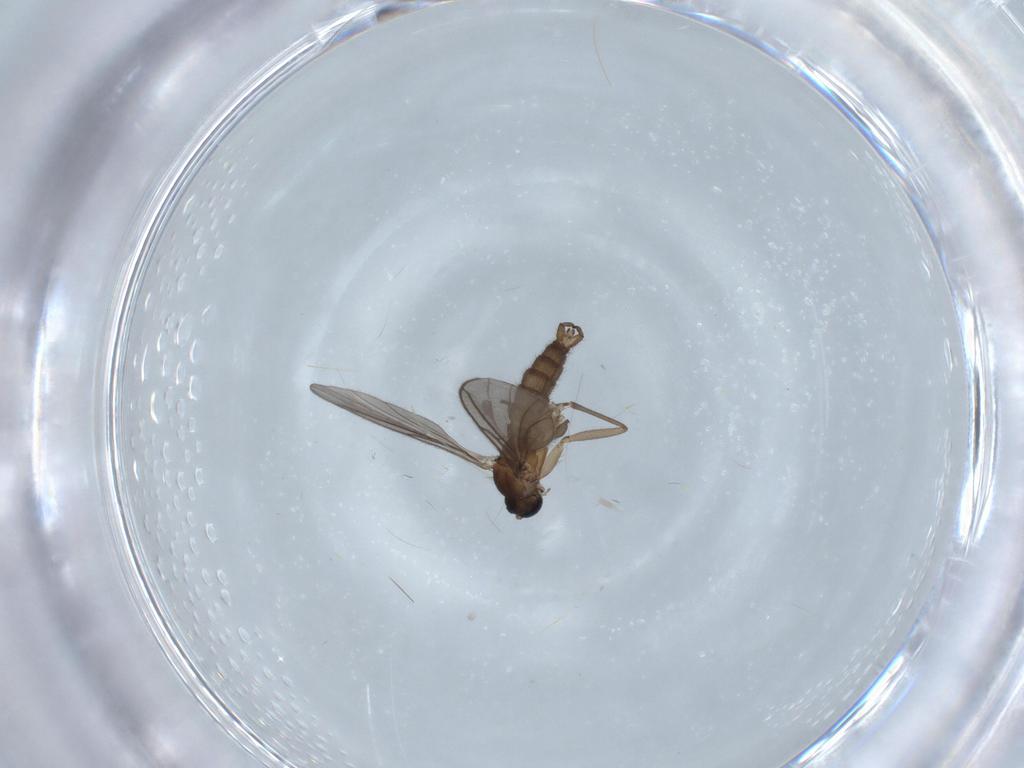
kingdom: Animalia
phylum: Arthropoda
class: Insecta
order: Diptera
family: Sciaridae
